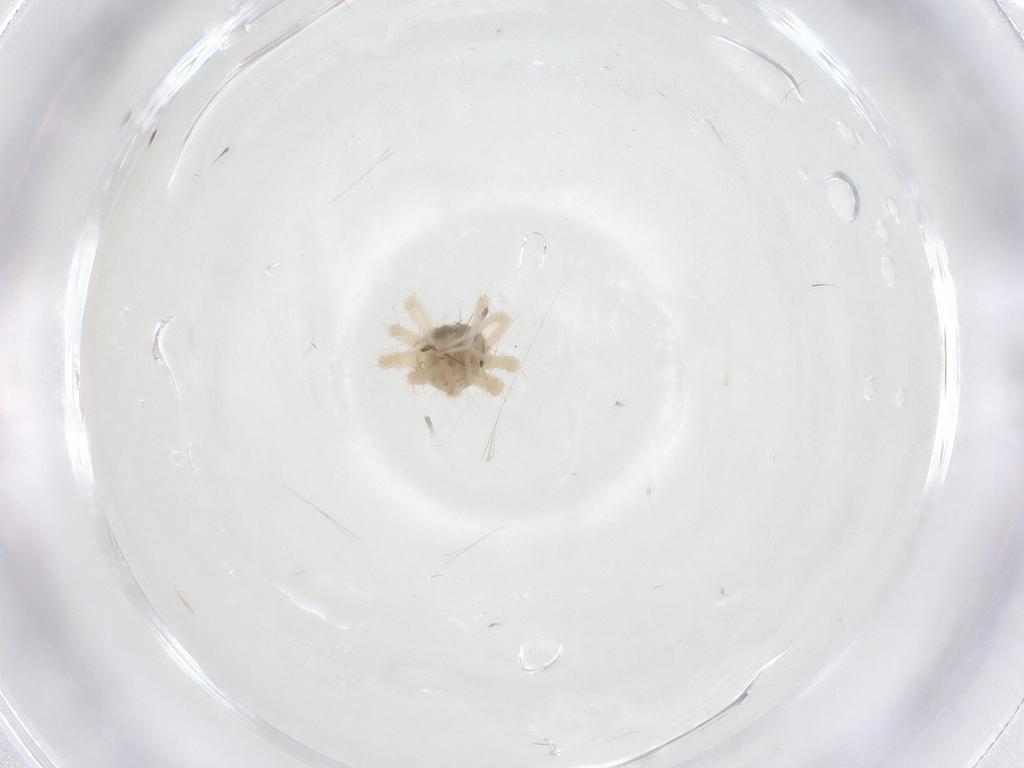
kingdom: Animalia
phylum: Arthropoda
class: Arachnida
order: Trombidiformes
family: Anystidae
